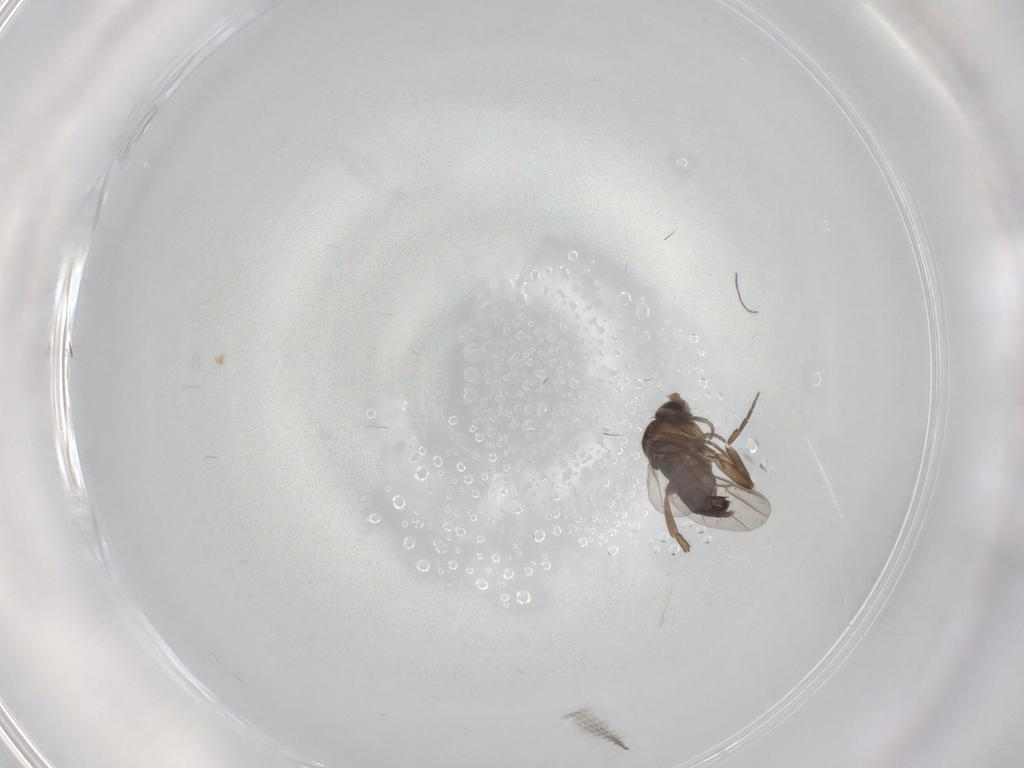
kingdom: Animalia
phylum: Arthropoda
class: Insecta
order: Diptera
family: Phoridae
